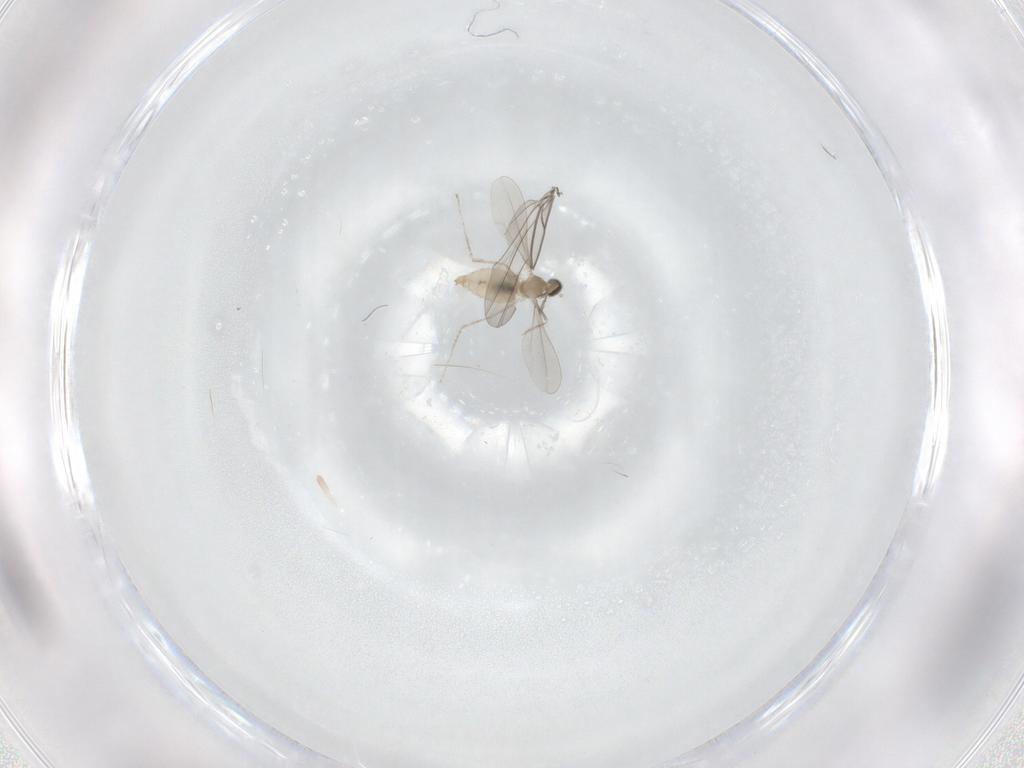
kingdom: Animalia
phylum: Arthropoda
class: Insecta
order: Diptera
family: Cecidomyiidae
